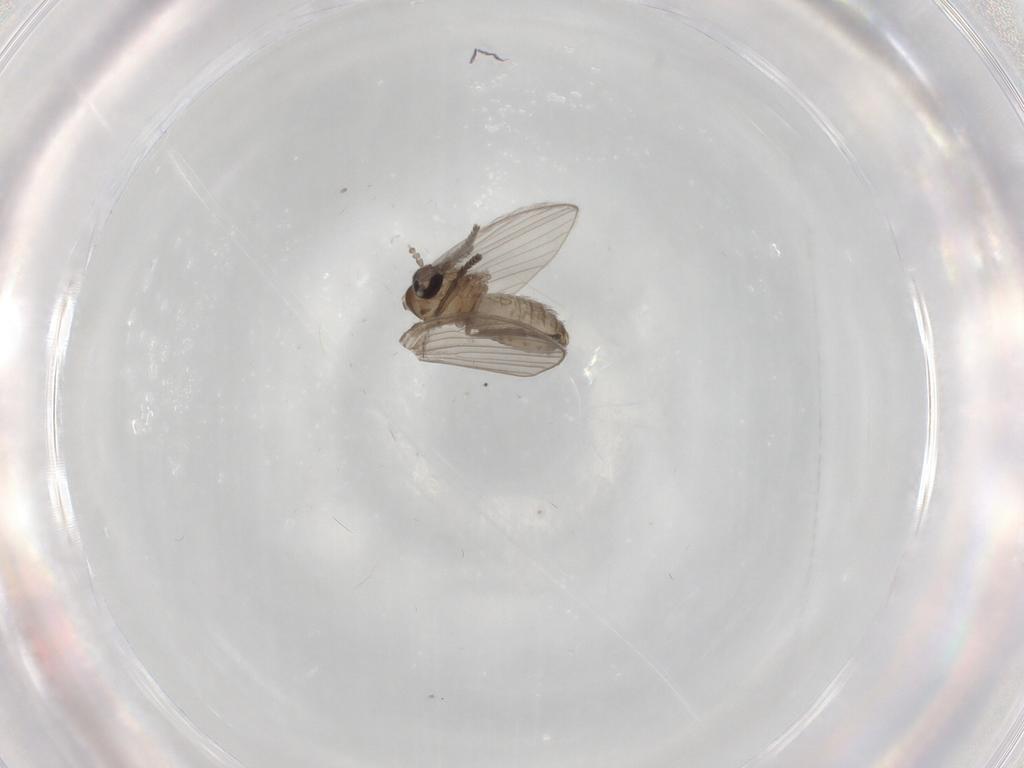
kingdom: Animalia
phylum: Arthropoda
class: Insecta
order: Diptera
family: Psychodidae
